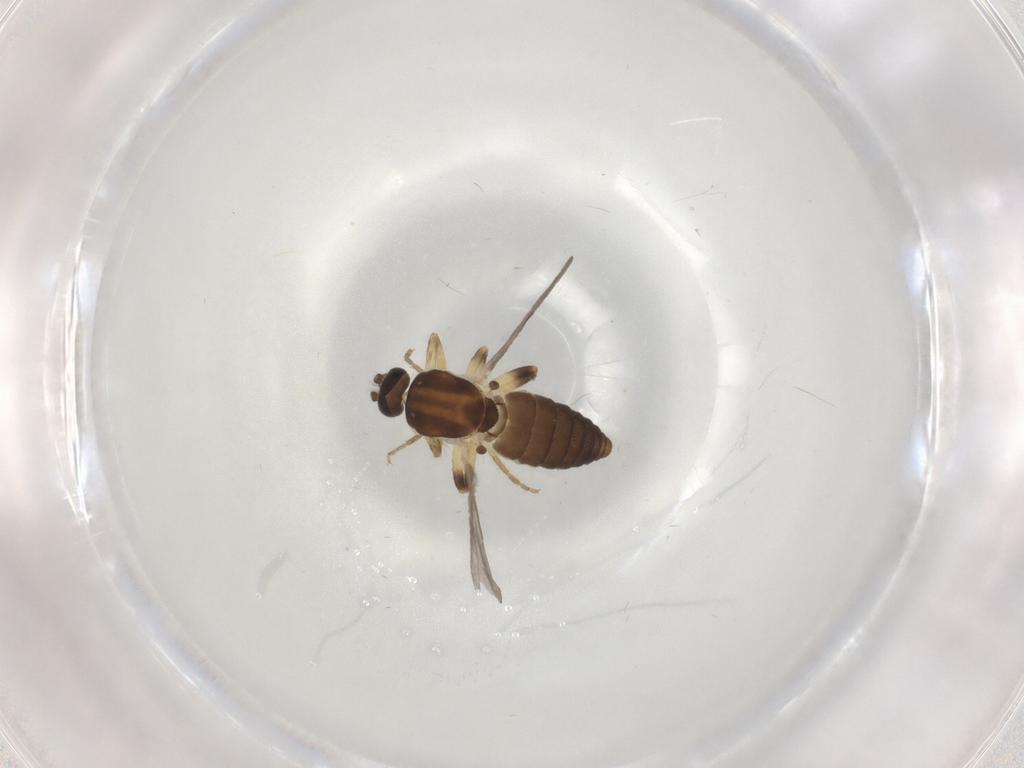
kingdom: Animalia
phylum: Arthropoda
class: Insecta
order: Diptera
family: Ceratopogonidae
